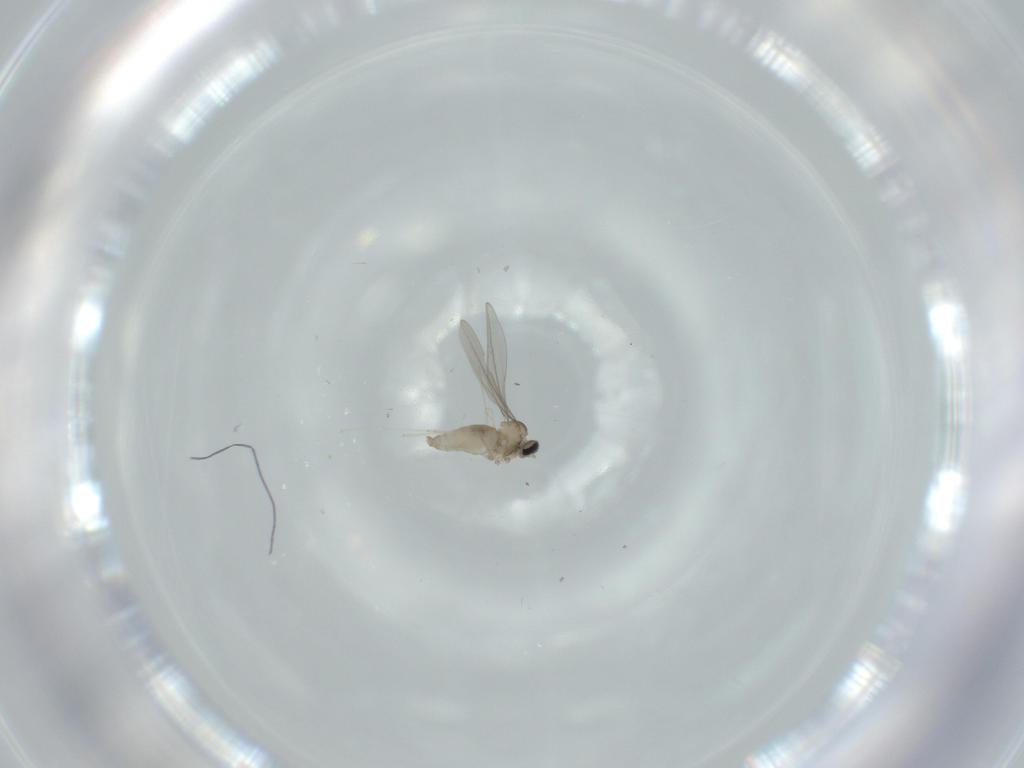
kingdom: Animalia
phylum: Arthropoda
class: Insecta
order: Diptera
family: Cecidomyiidae
